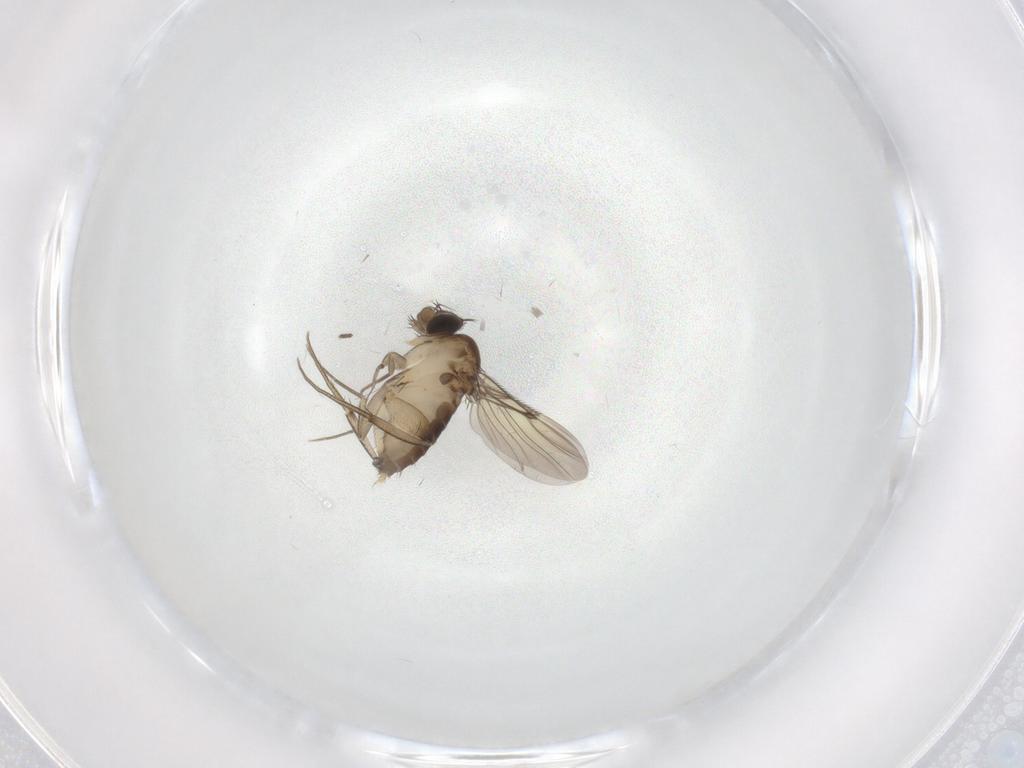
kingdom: Animalia
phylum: Arthropoda
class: Insecta
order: Diptera
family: Phoridae
